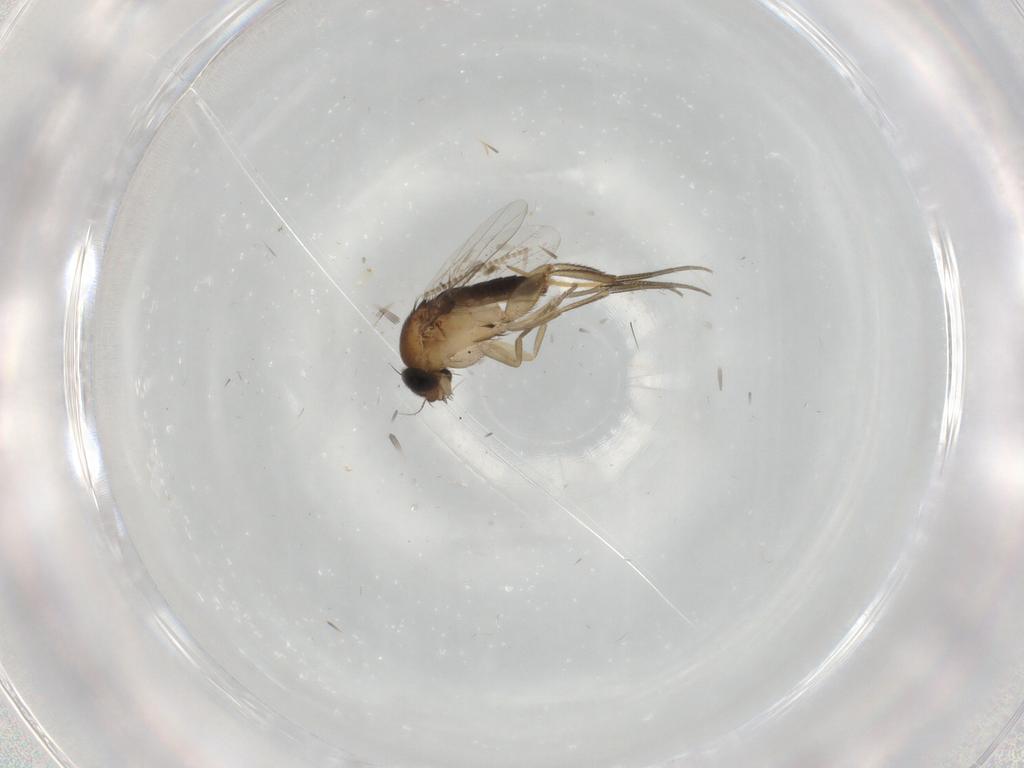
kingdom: Animalia
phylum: Arthropoda
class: Insecta
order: Diptera
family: Phoridae
